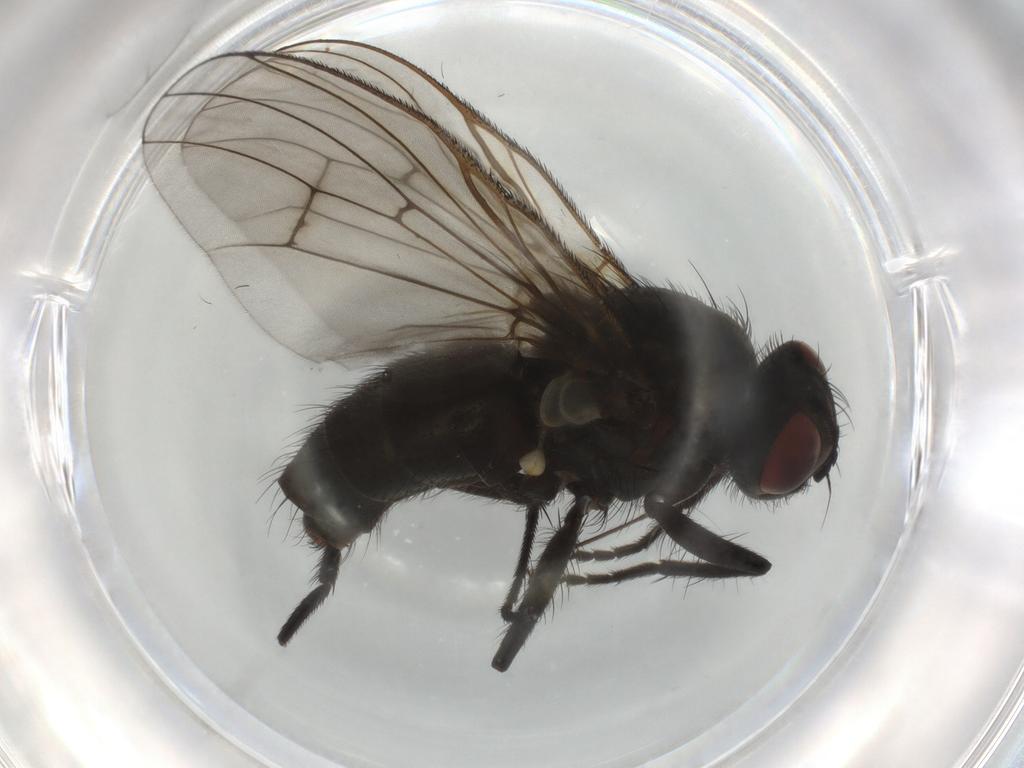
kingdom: Animalia
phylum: Arthropoda
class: Insecta
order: Diptera
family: Muscidae
